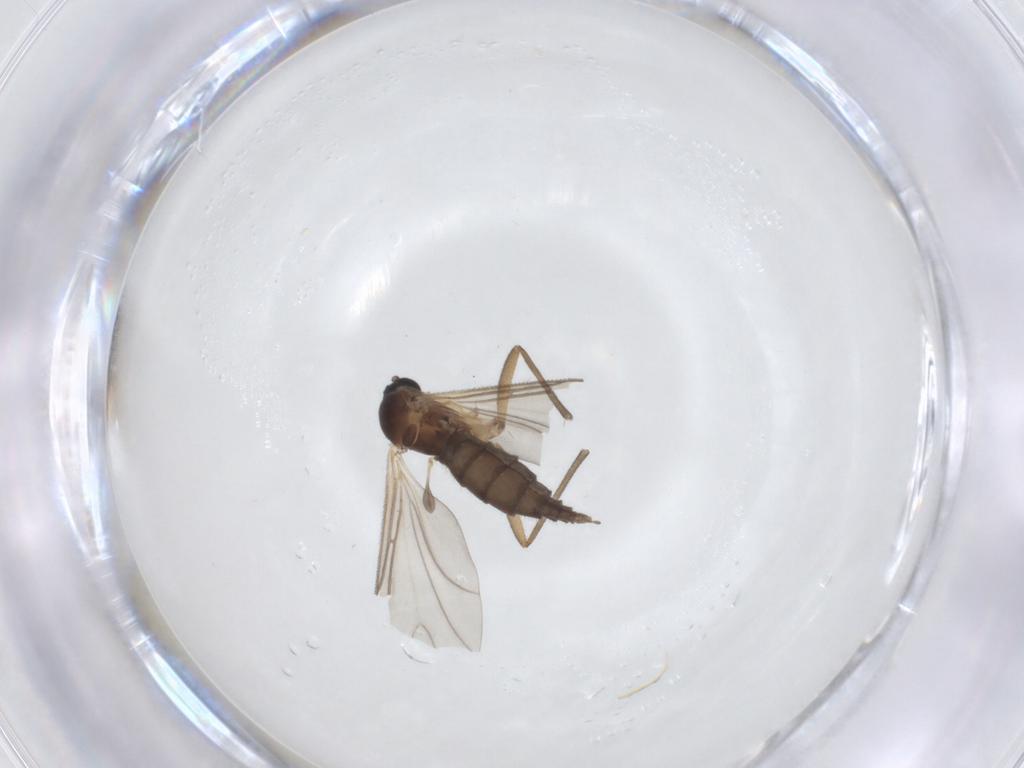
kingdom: Animalia
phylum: Arthropoda
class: Insecta
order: Diptera
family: Sciaridae
